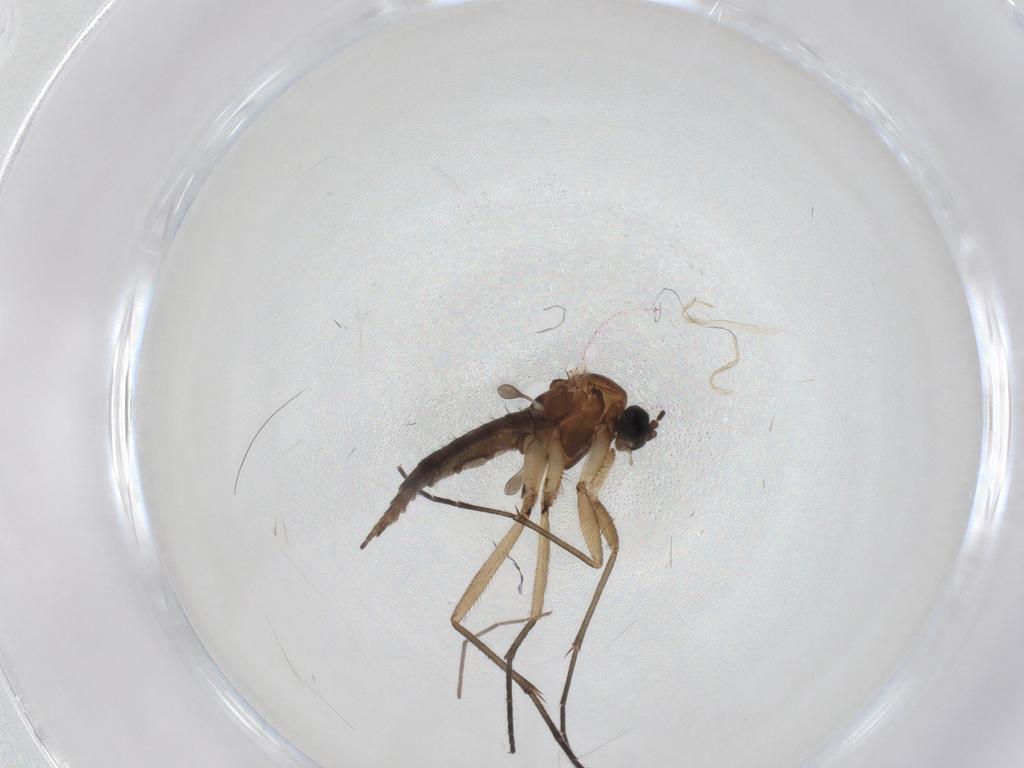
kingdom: Animalia
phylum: Arthropoda
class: Insecta
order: Diptera
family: Sciaridae
